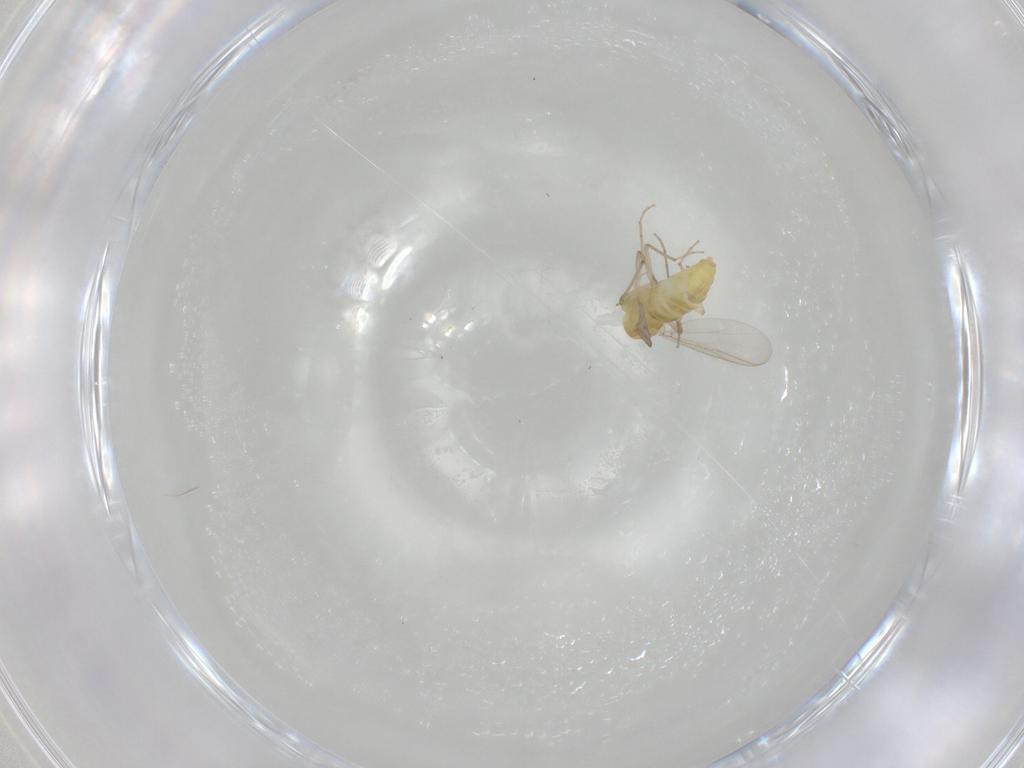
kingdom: Animalia
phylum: Arthropoda
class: Insecta
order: Diptera
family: Chironomidae
